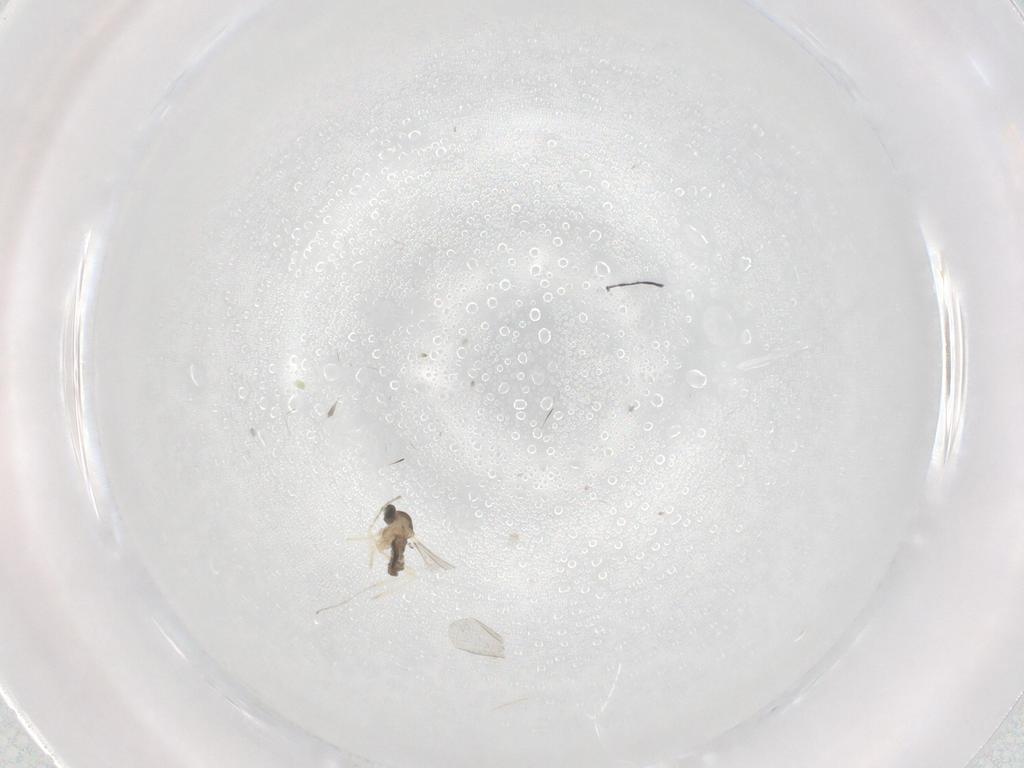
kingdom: Animalia
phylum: Arthropoda
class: Insecta
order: Diptera
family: Cecidomyiidae
